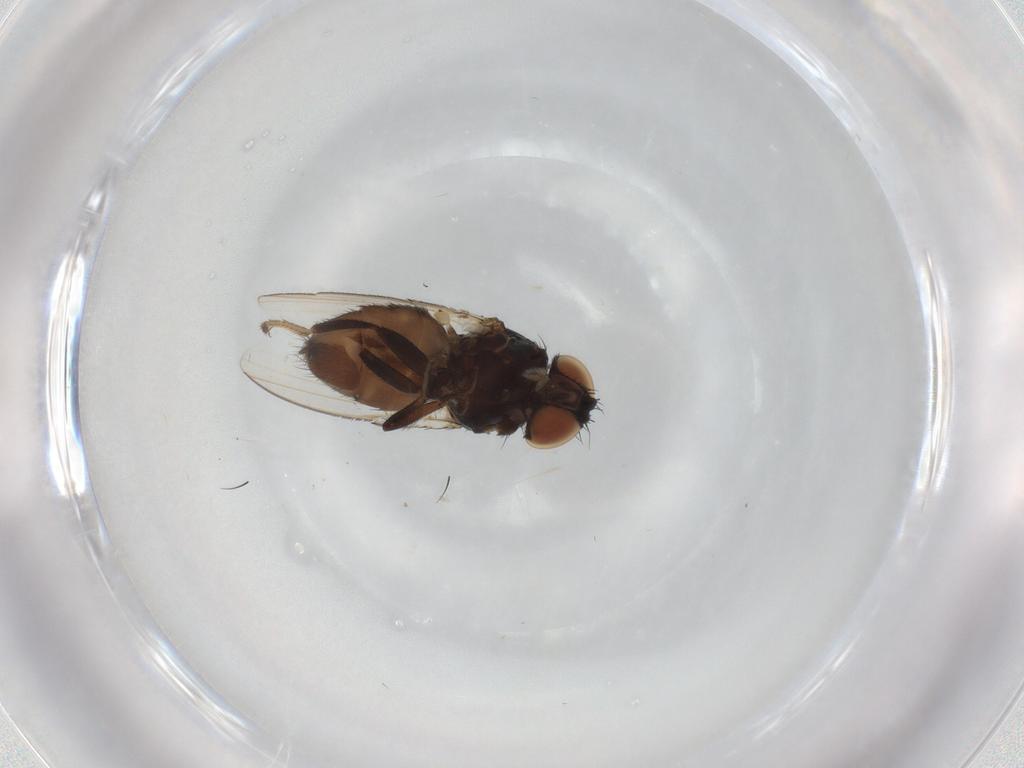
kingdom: Animalia
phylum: Arthropoda
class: Insecta
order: Diptera
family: Milichiidae
